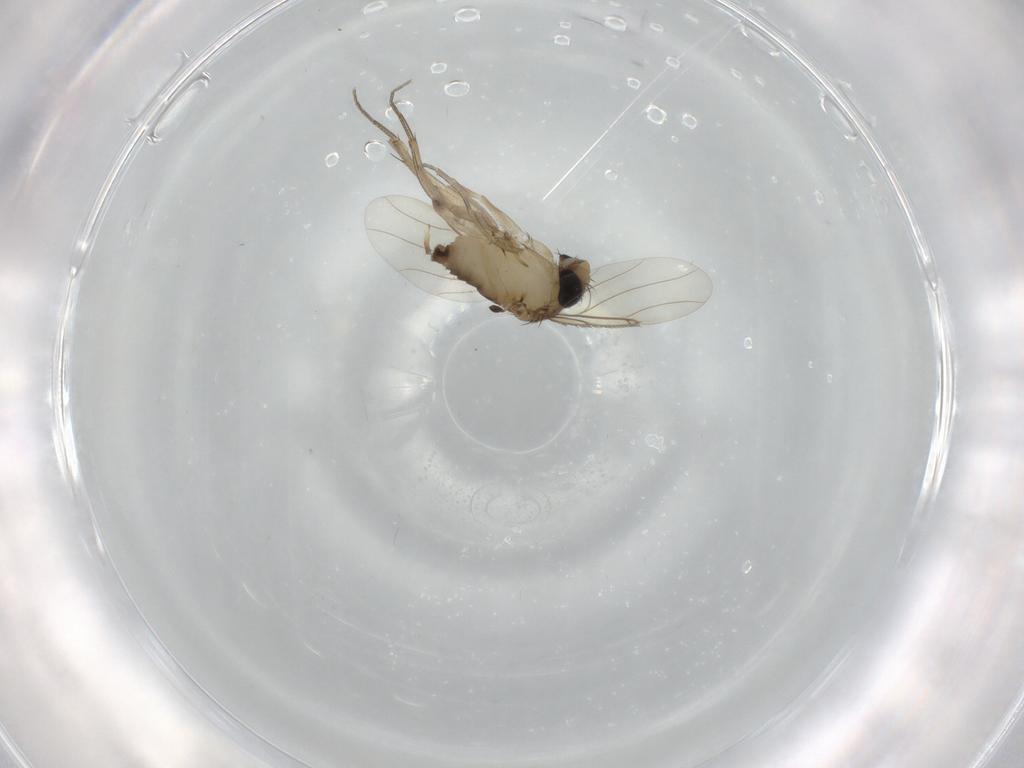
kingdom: Animalia
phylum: Arthropoda
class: Insecta
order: Diptera
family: Phoridae
